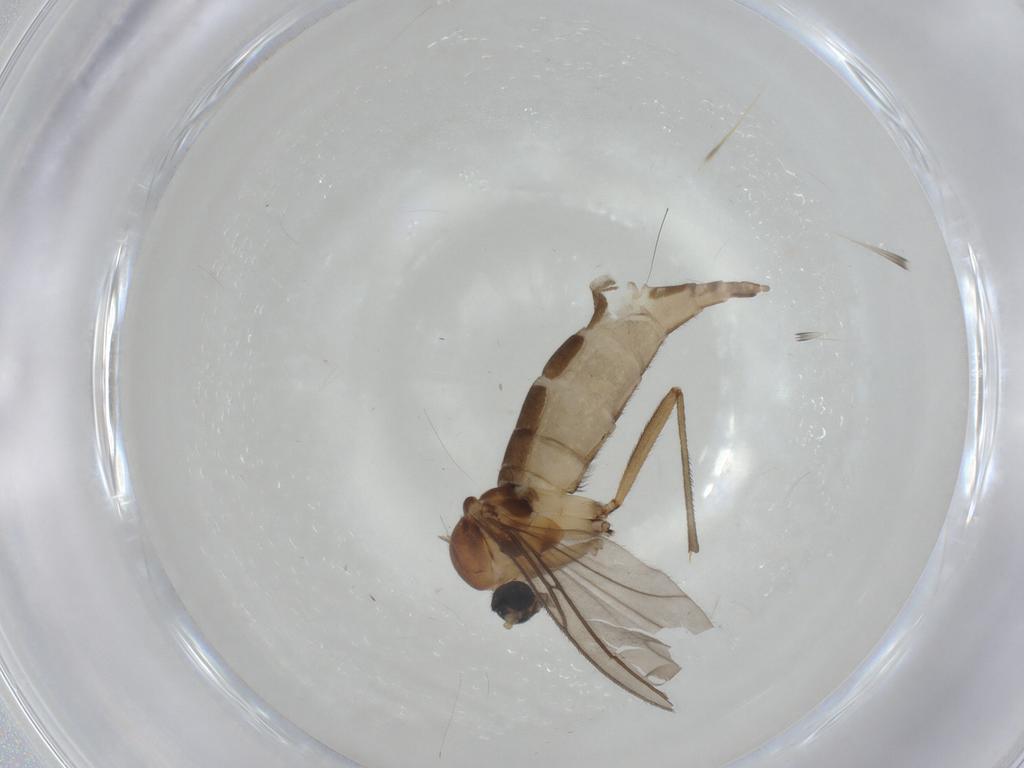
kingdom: Animalia
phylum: Arthropoda
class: Insecta
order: Diptera
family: Sciaridae
